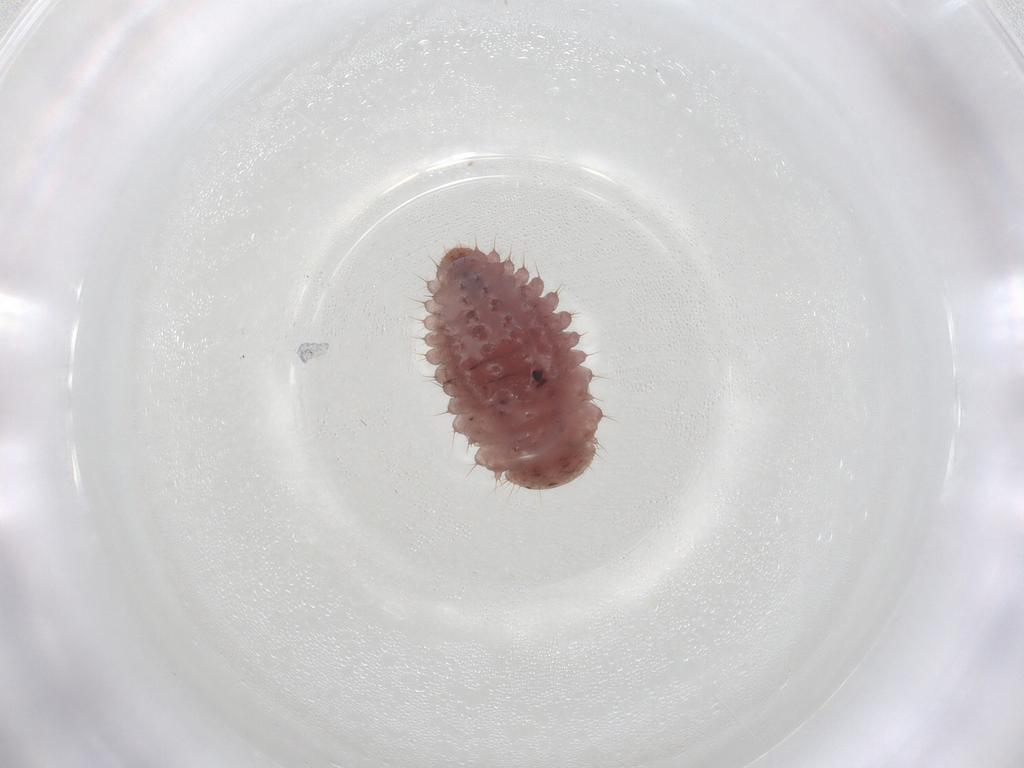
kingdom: Animalia
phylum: Arthropoda
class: Insecta
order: Coleoptera
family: Coccinellidae
